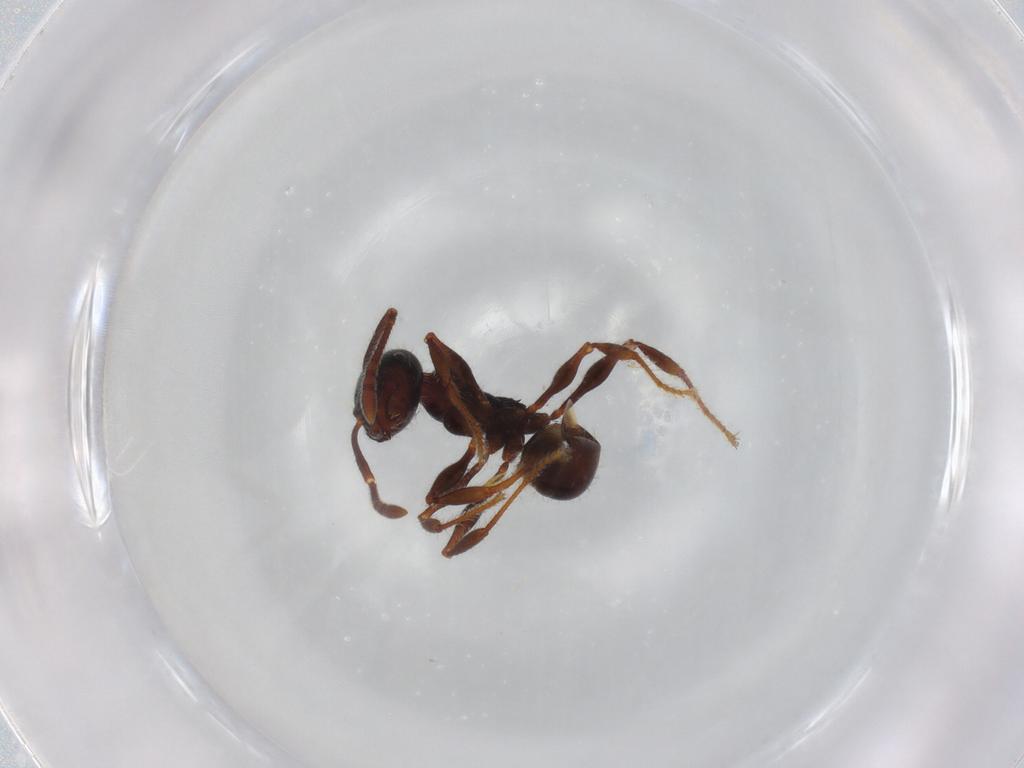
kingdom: Animalia
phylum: Arthropoda
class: Insecta
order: Hymenoptera
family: Formicidae
